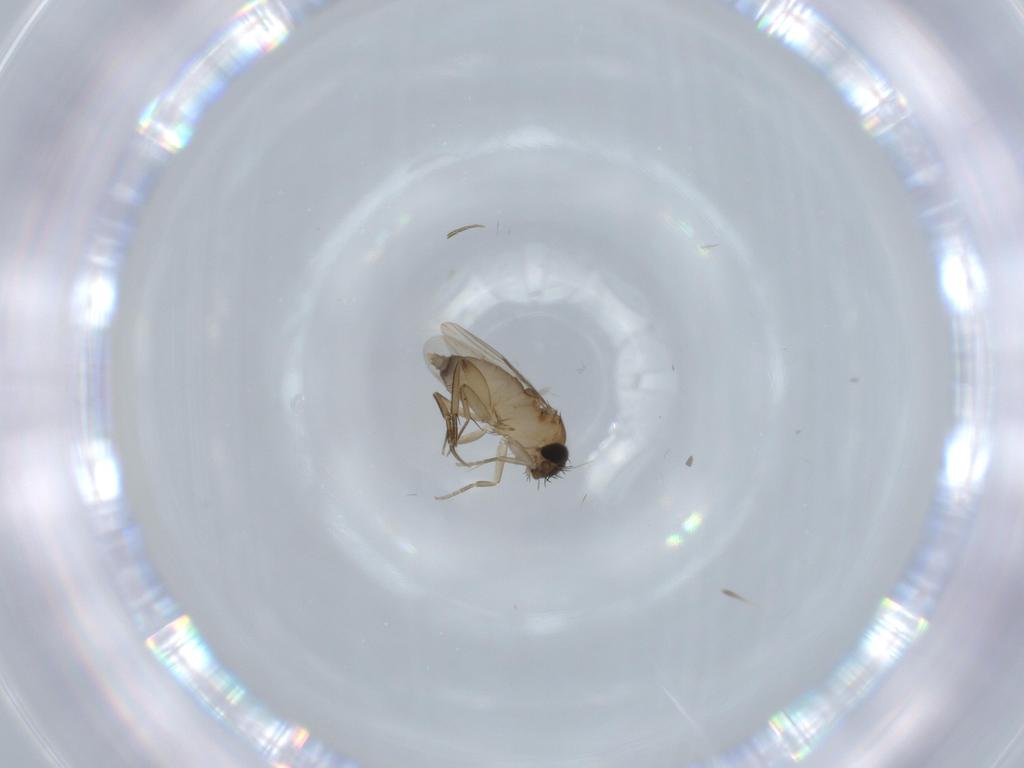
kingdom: Animalia
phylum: Arthropoda
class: Insecta
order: Diptera
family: Phoridae
